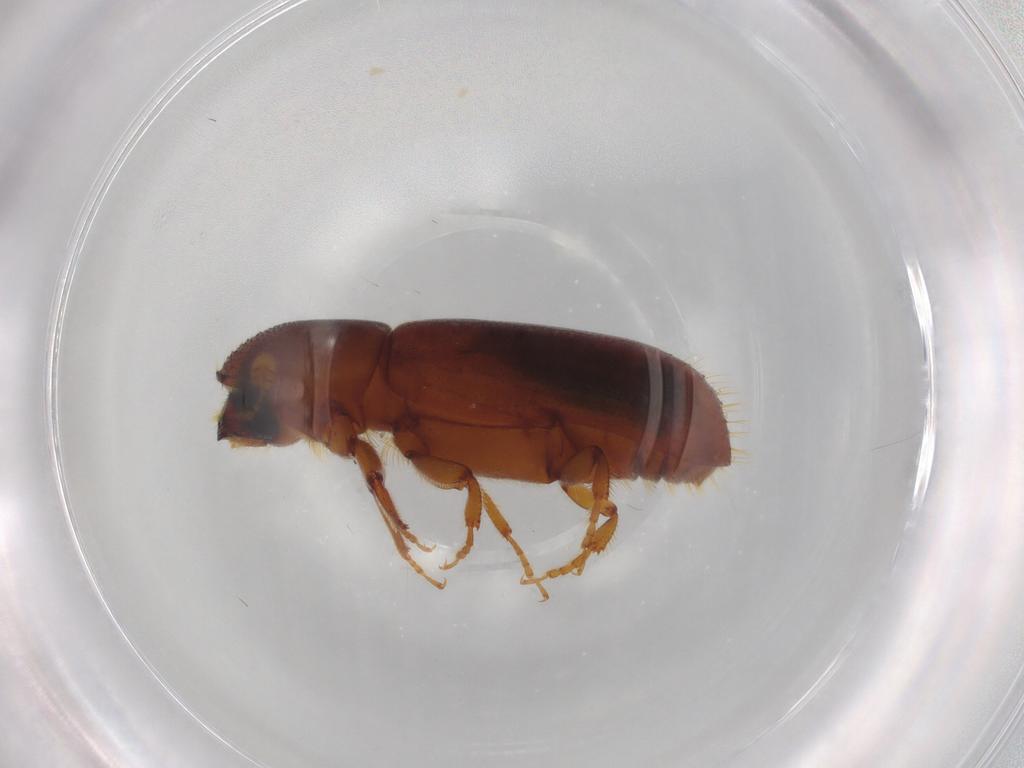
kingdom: Animalia
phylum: Arthropoda
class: Insecta
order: Coleoptera
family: Curculionidae
